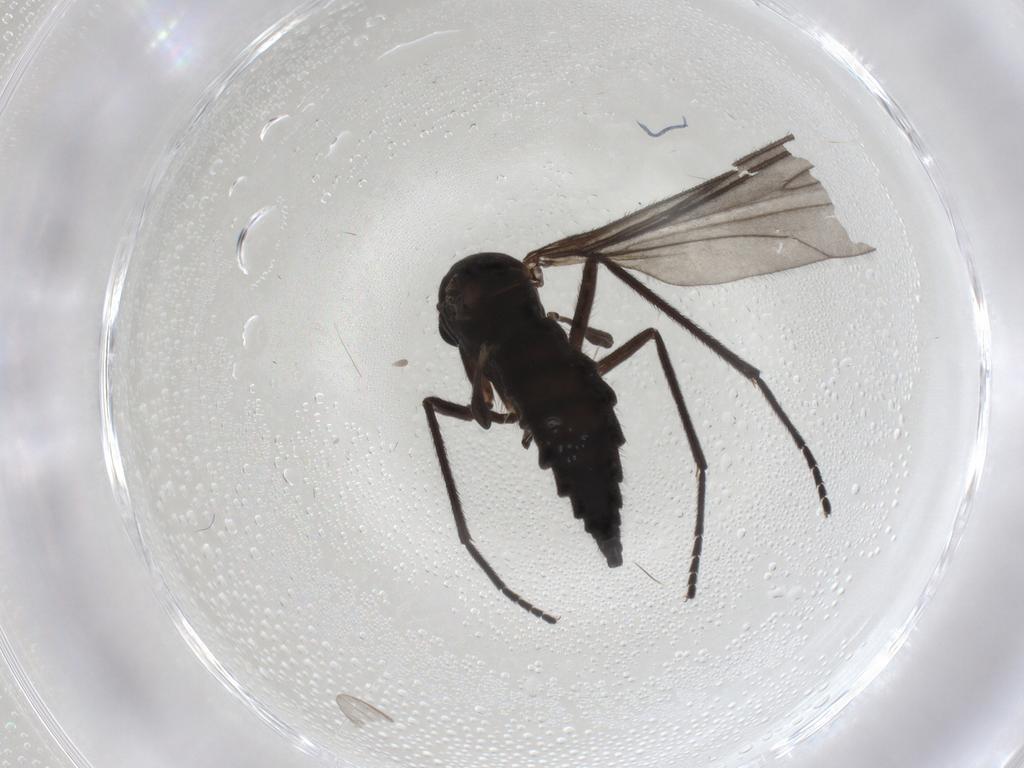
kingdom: Animalia
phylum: Arthropoda
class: Insecta
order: Diptera
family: Sciaridae
